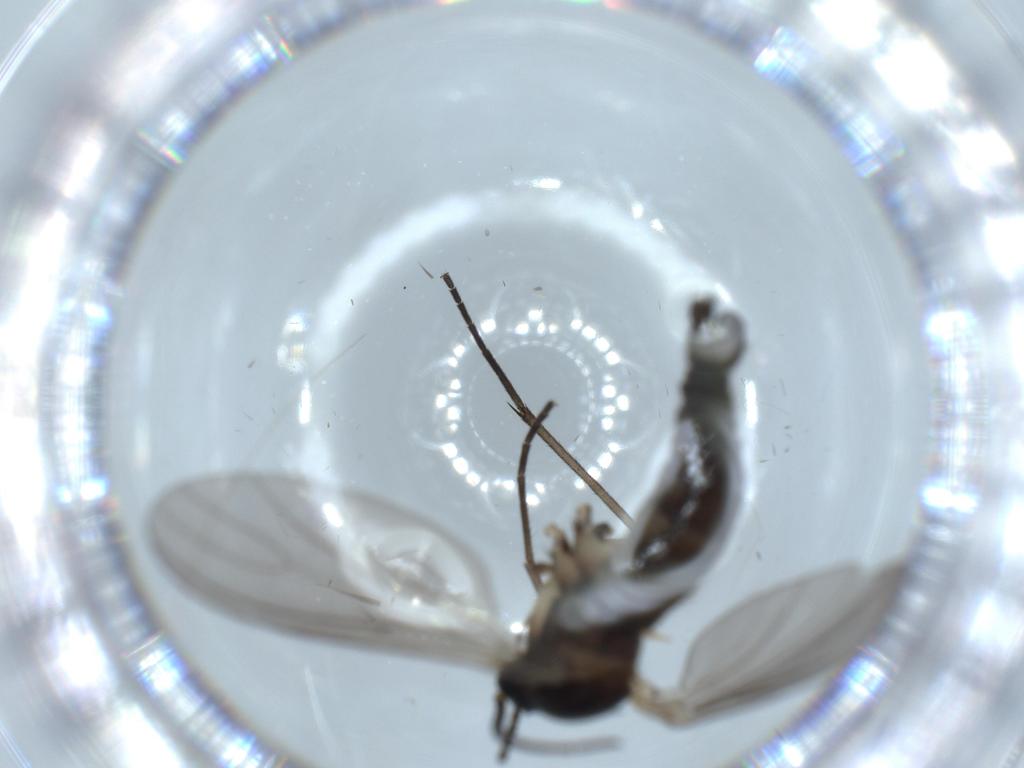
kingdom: Animalia
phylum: Arthropoda
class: Insecta
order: Diptera
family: Sciaridae
